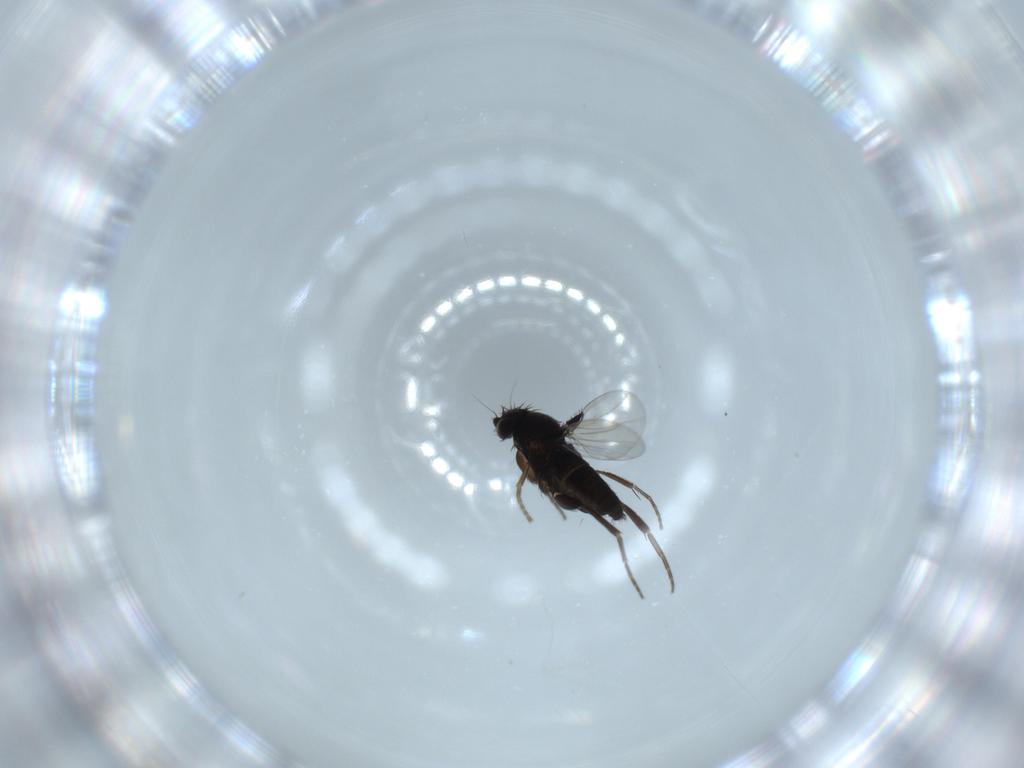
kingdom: Animalia
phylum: Arthropoda
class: Insecta
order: Diptera
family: Phoridae
